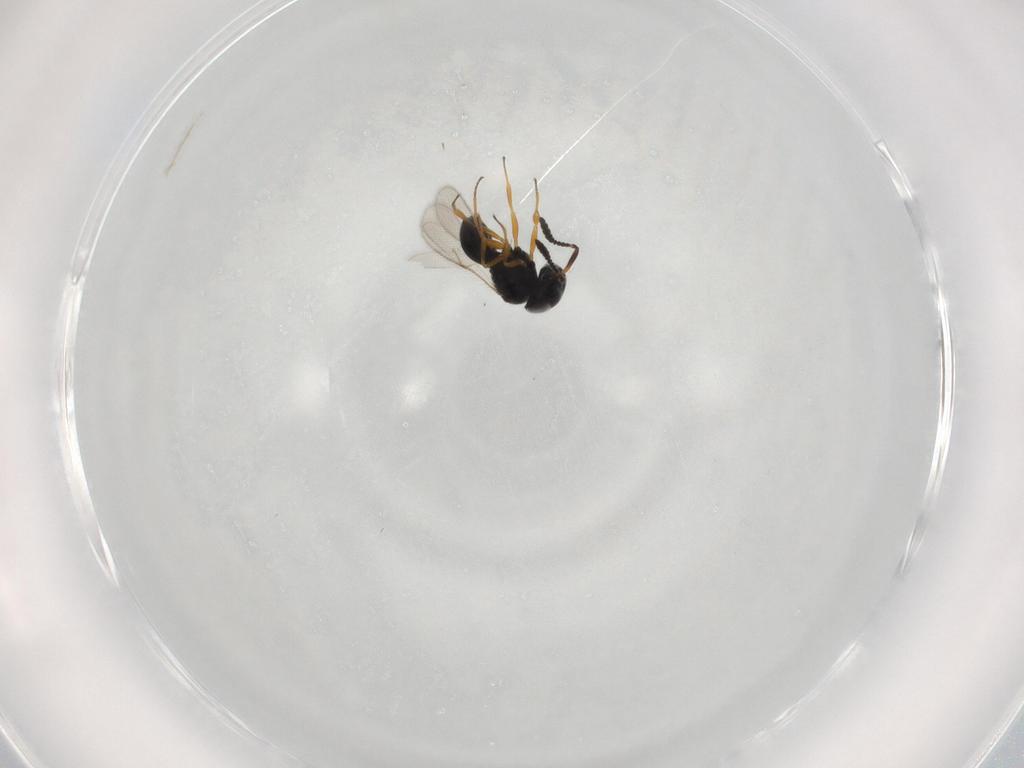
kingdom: Animalia
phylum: Arthropoda
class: Insecta
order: Hymenoptera
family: Scelionidae
